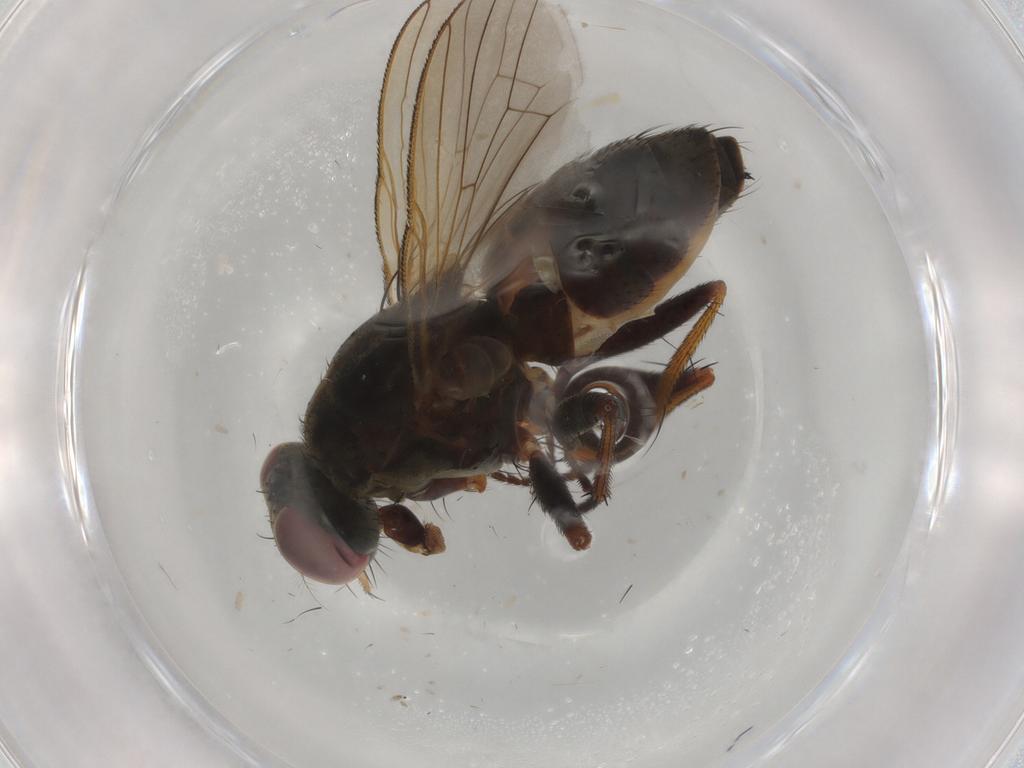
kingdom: Animalia
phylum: Arthropoda
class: Insecta
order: Diptera
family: Muscidae
